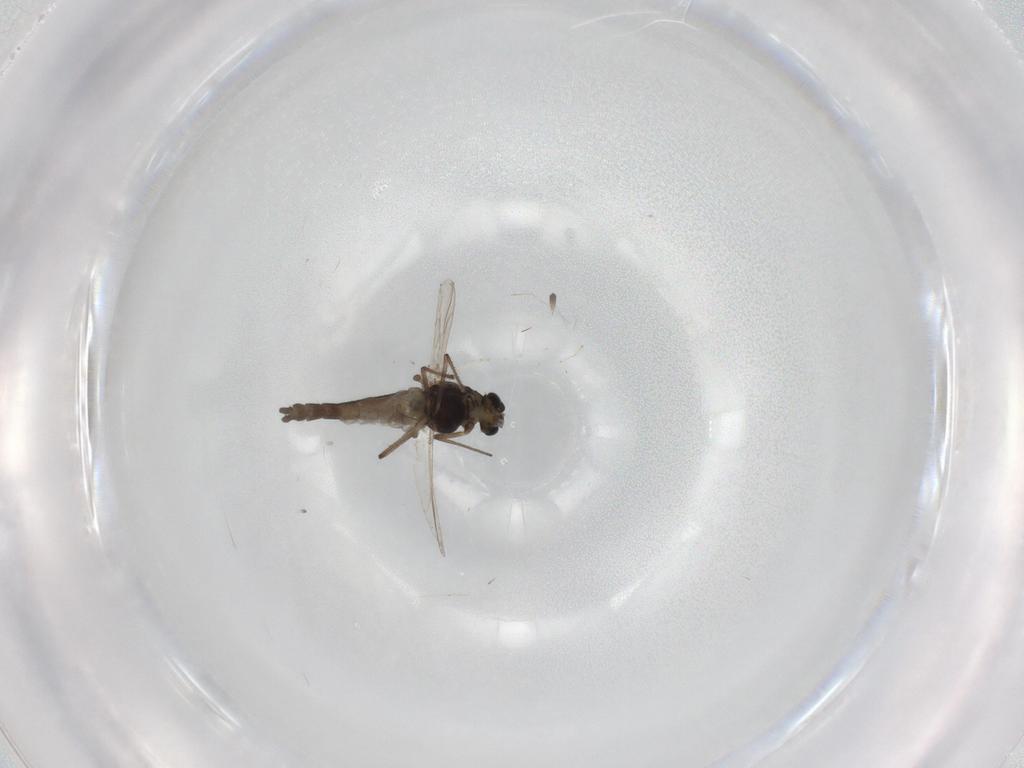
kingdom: Animalia
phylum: Arthropoda
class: Insecta
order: Diptera
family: Chironomidae
